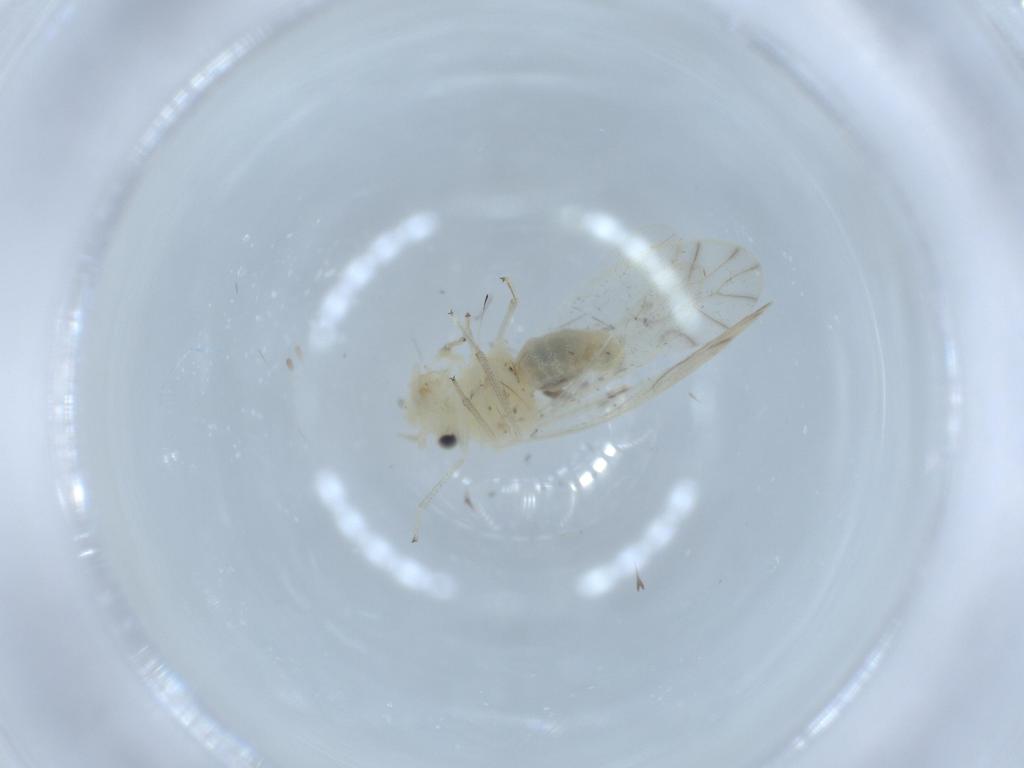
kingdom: Animalia
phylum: Arthropoda
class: Insecta
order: Psocodea
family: Caeciliusidae
